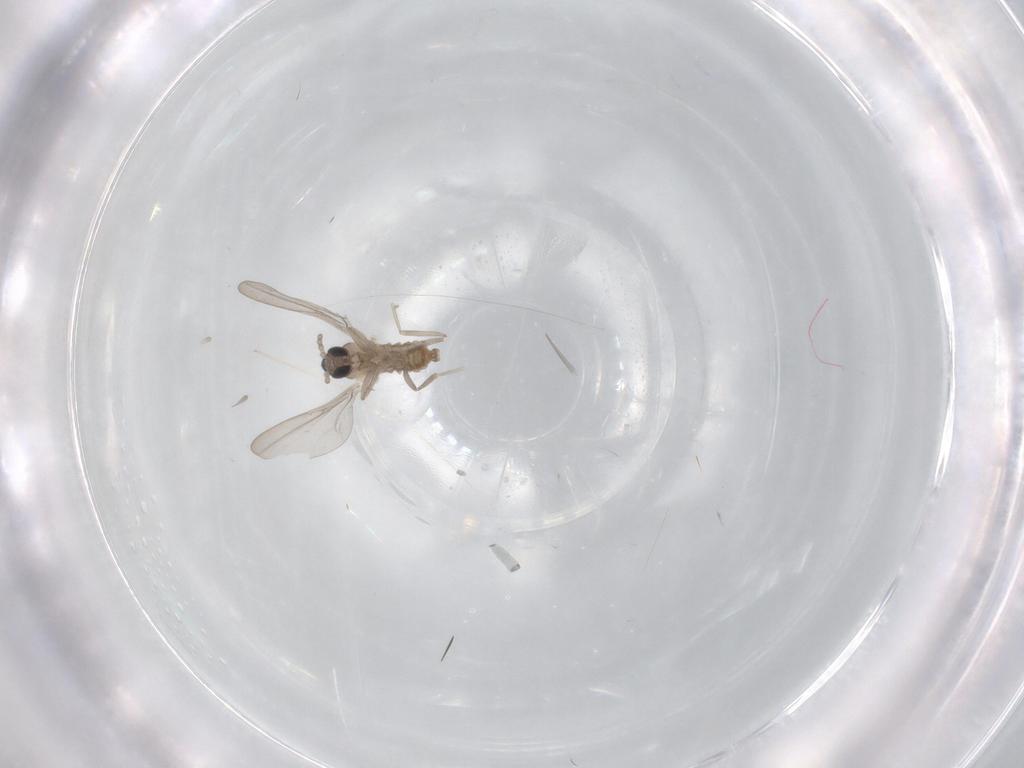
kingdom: Animalia
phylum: Arthropoda
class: Insecta
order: Diptera
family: Cecidomyiidae
